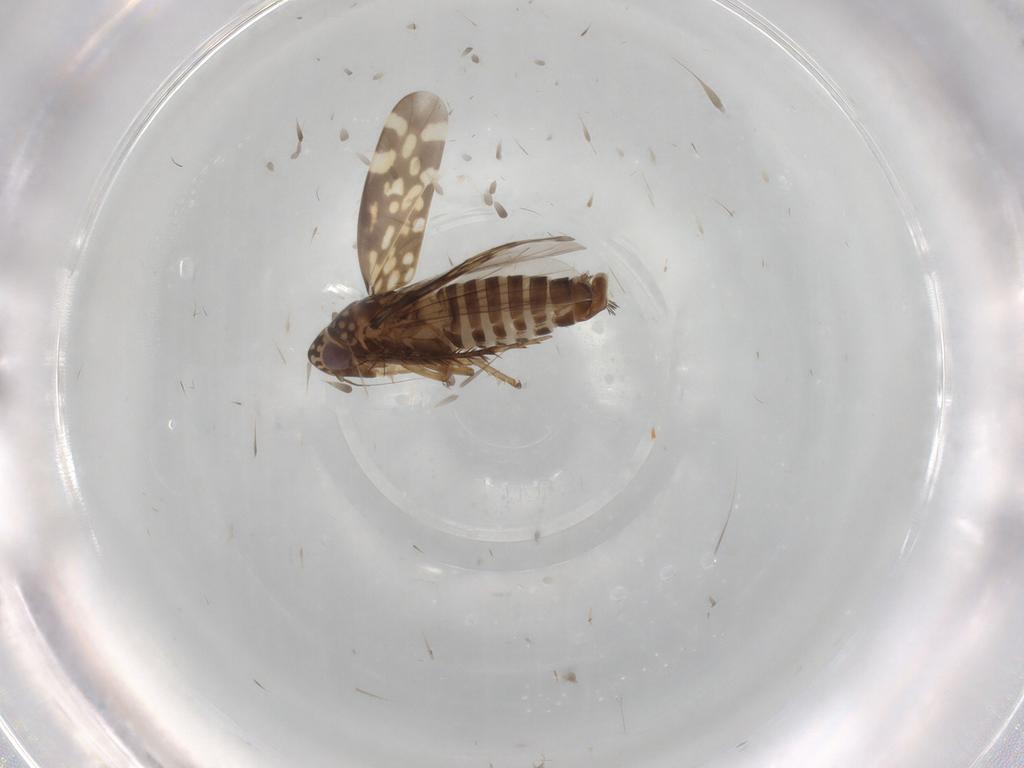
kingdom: Animalia
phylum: Arthropoda
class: Insecta
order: Hemiptera
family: Cicadellidae
